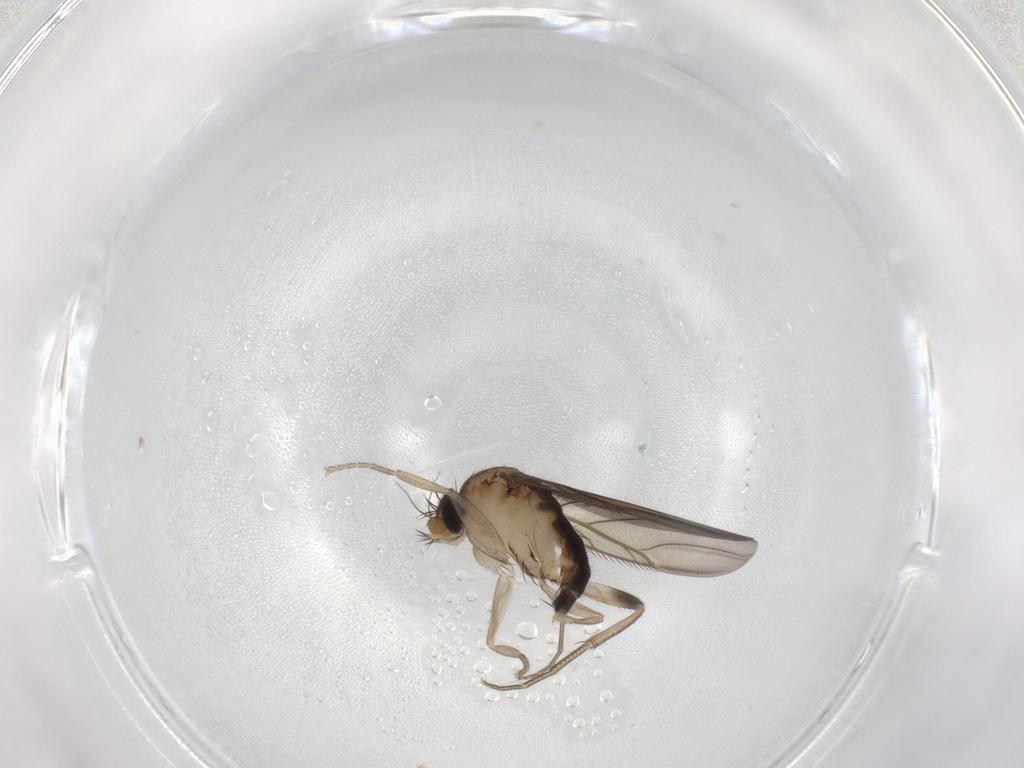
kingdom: Animalia
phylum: Arthropoda
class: Insecta
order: Diptera
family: Phoridae
